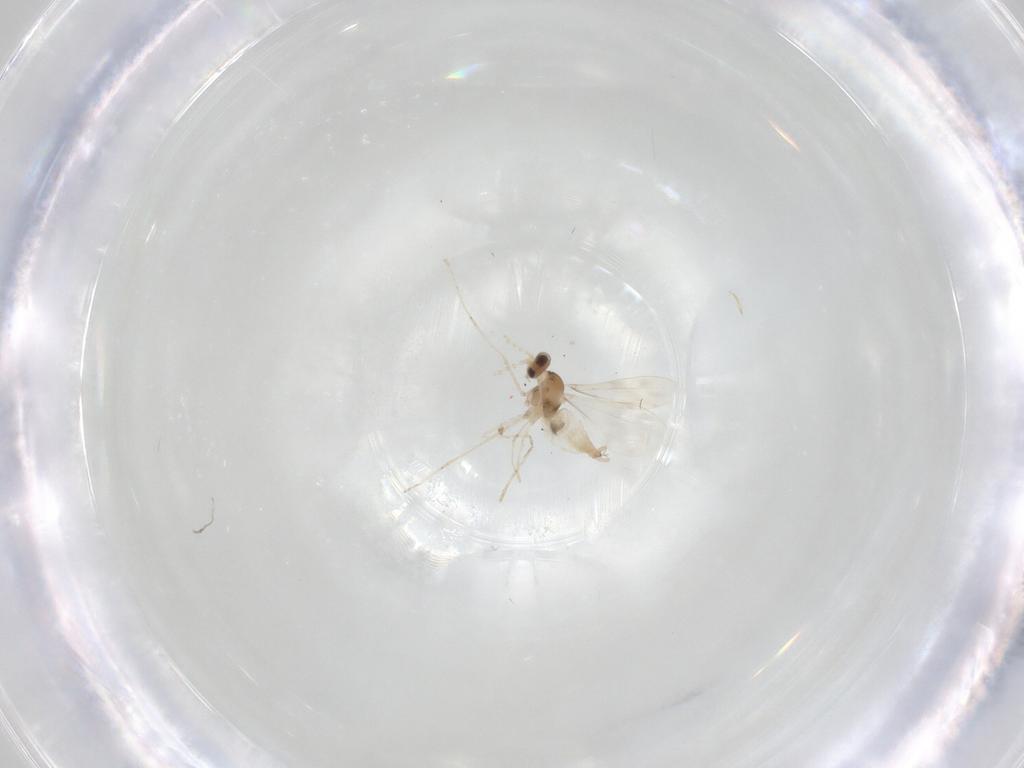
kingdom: Animalia
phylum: Arthropoda
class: Insecta
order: Diptera
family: Cecidomyiidae
